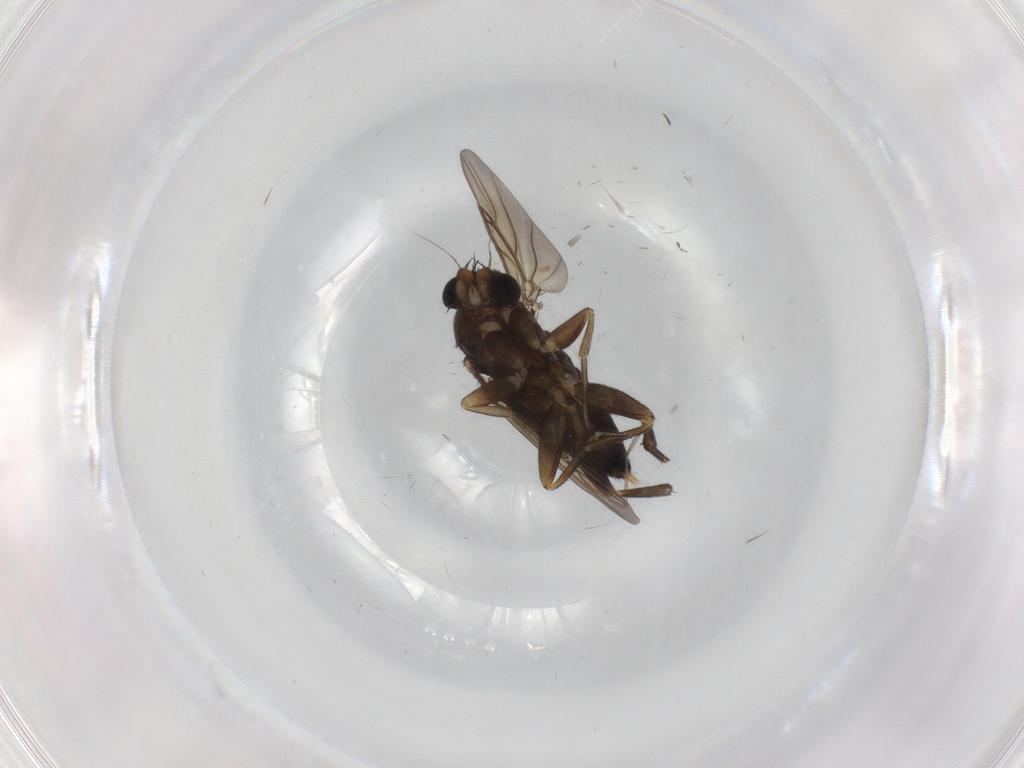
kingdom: Animalia
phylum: Arthropoda
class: Insecta
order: Diptera
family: Phoridae
